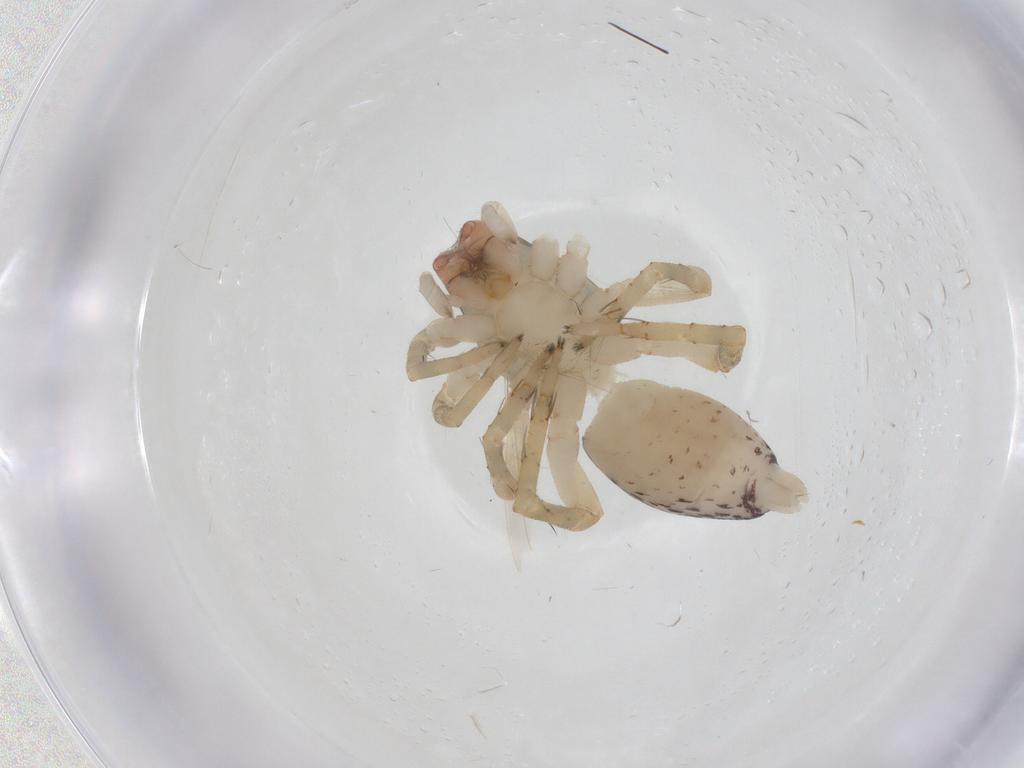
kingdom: Animalia
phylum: Arthropoda
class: Arachnida
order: Araneae
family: Clubionidae
